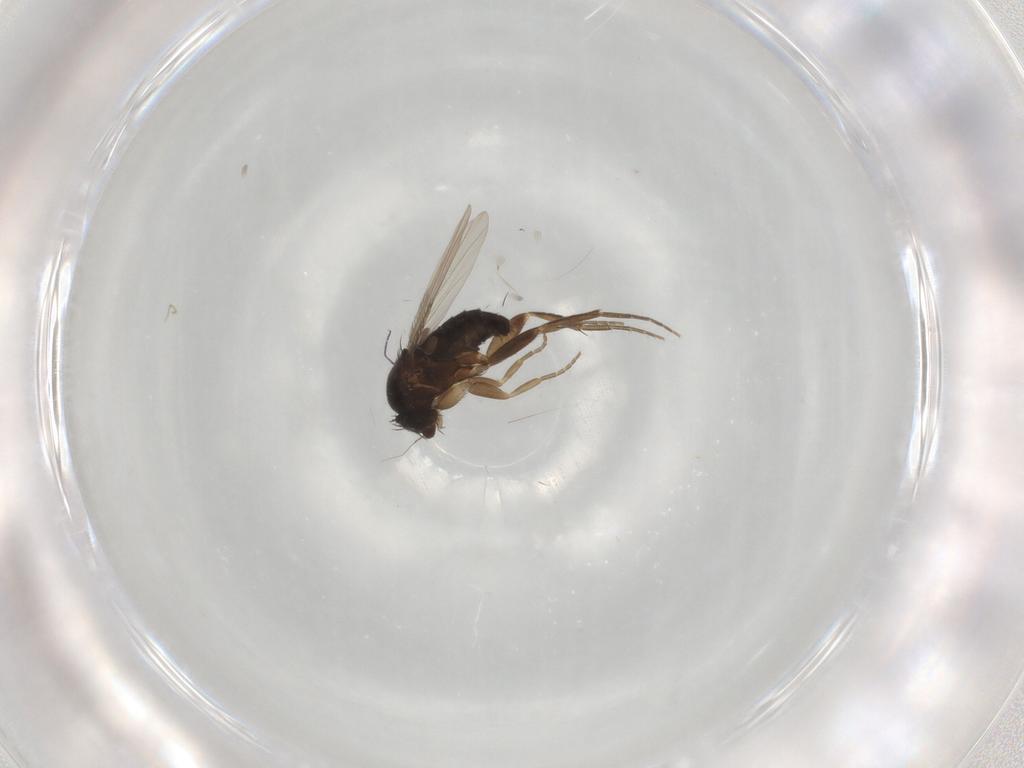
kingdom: Animalia
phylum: Arthropoda
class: Insecta
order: Diptera
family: Phoridae
